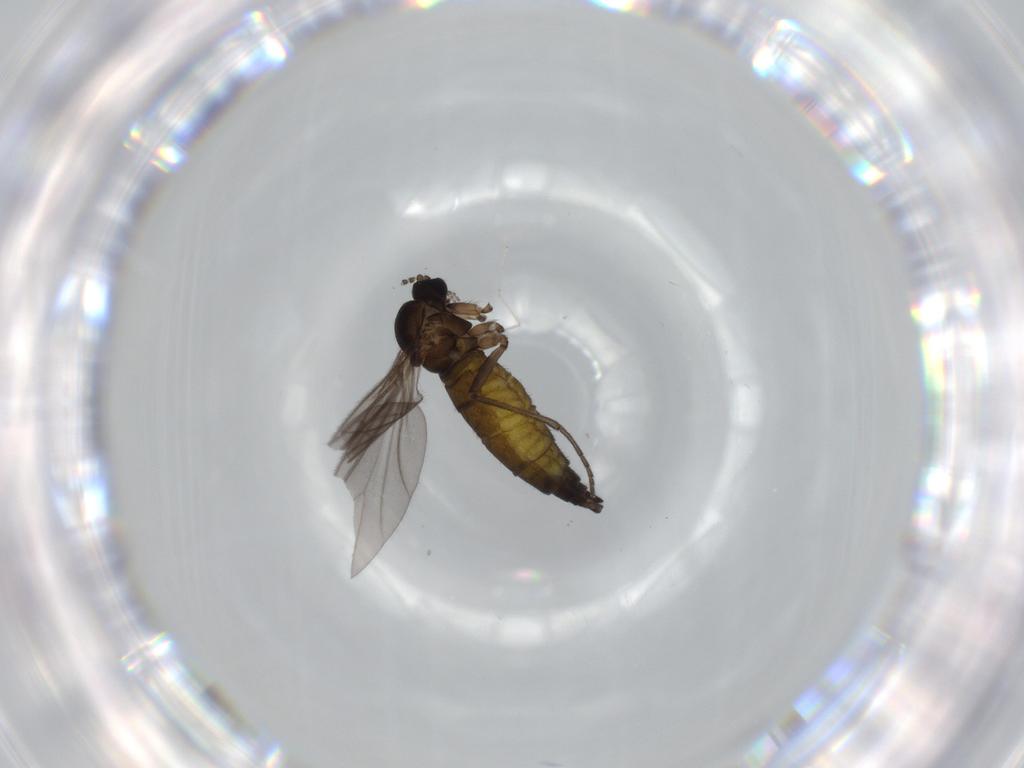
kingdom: Animalia
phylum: Arthropoda
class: Insecta
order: Diptera
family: Sciaridae
